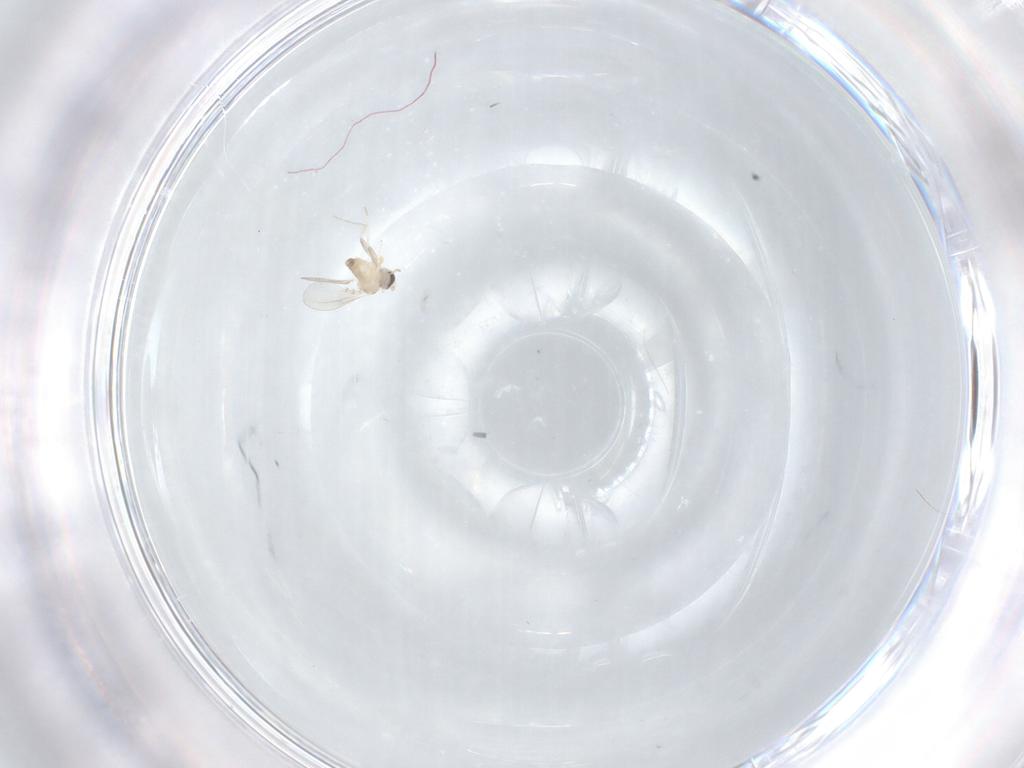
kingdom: Animalia
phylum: Arthropoda
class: Insecta
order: Diptera
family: Cecidomyiidae
